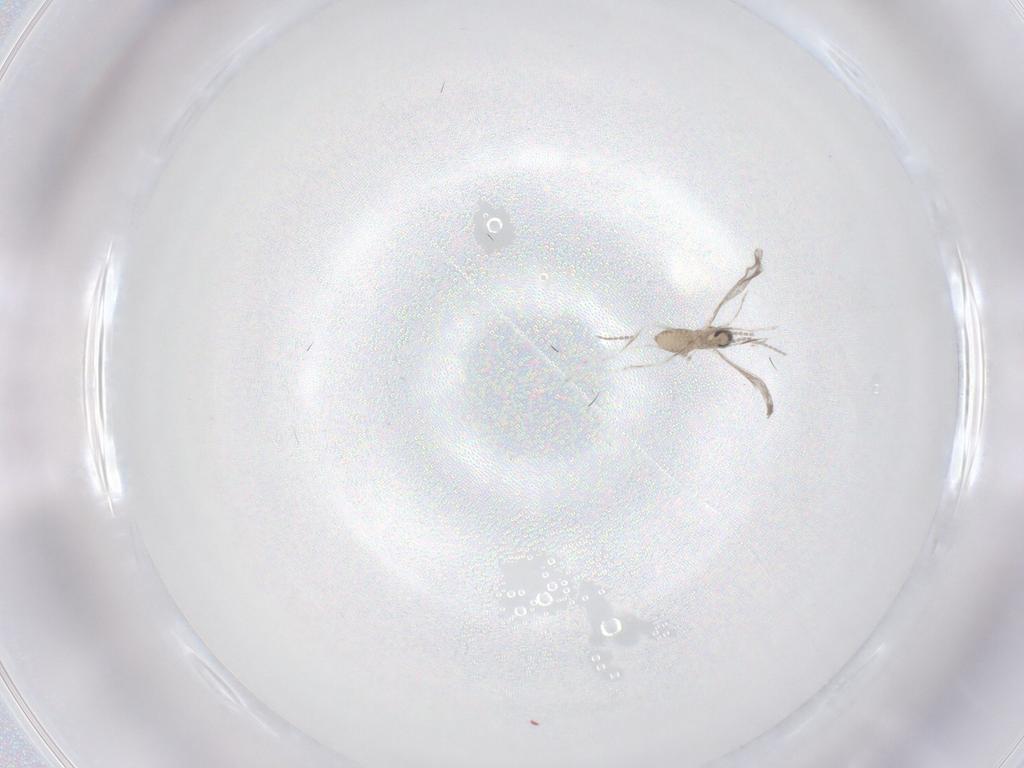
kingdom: Animalia
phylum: Arthropoda
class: Insecta
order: Diptera
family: Cecidomyiidae
